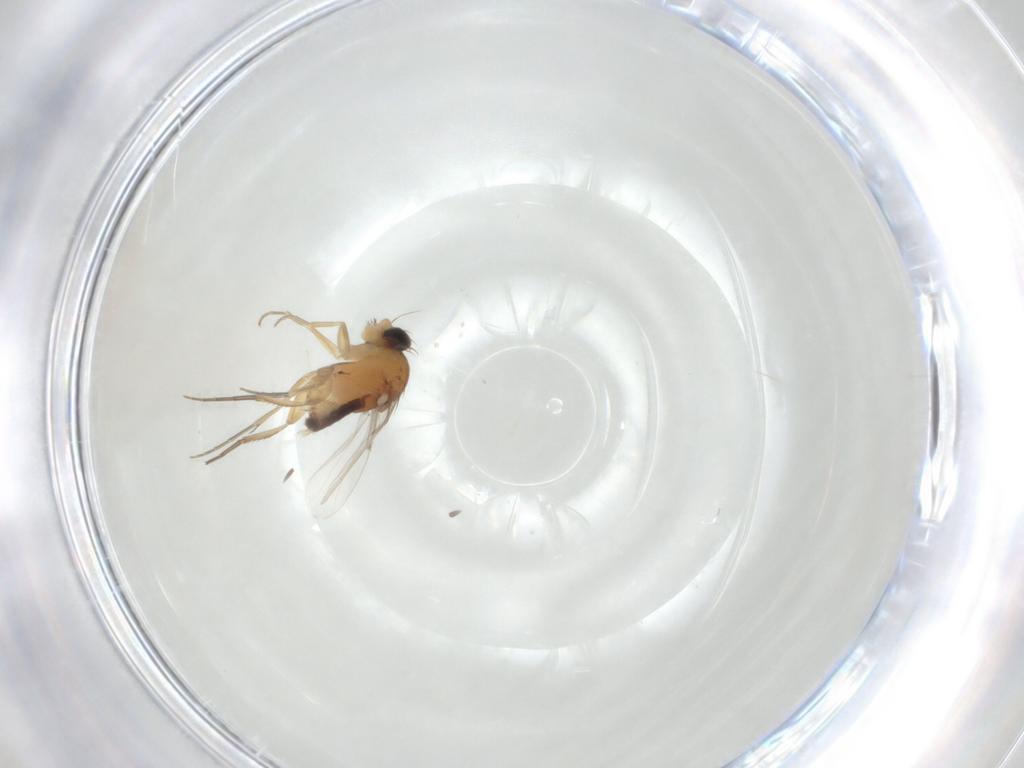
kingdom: Animalia
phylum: Arthropoda
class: Insecta
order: Diptera
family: Phoridae
